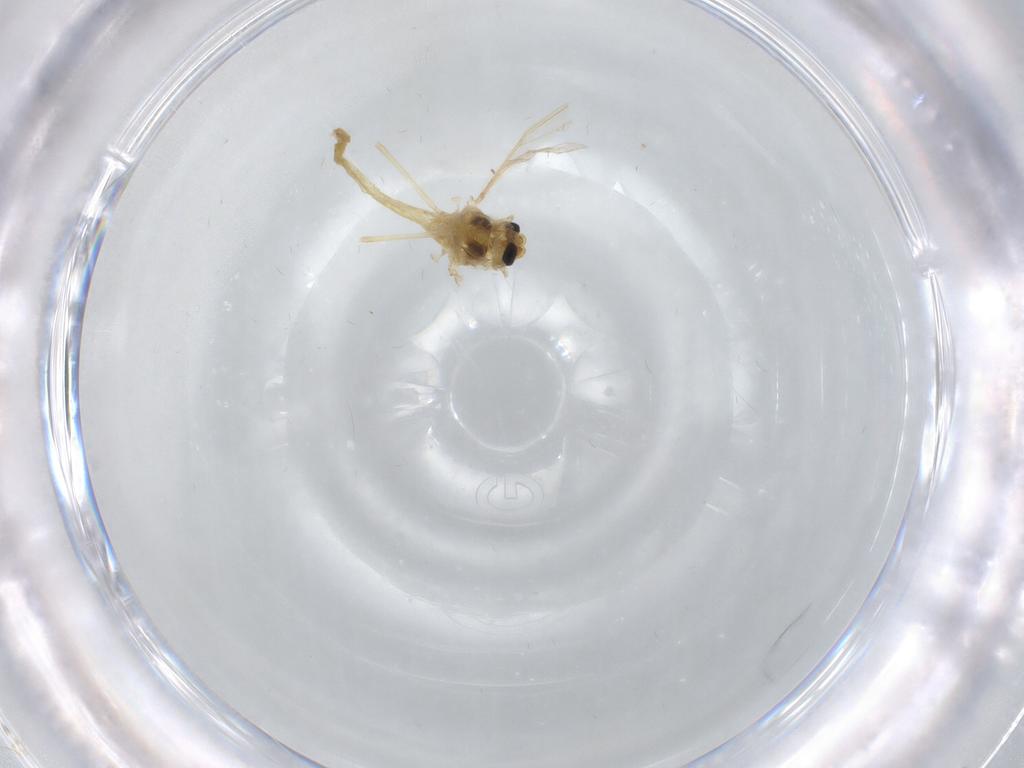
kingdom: Animalia
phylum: Arthropoda
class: Insecta
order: Diptera
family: Chironomidae
